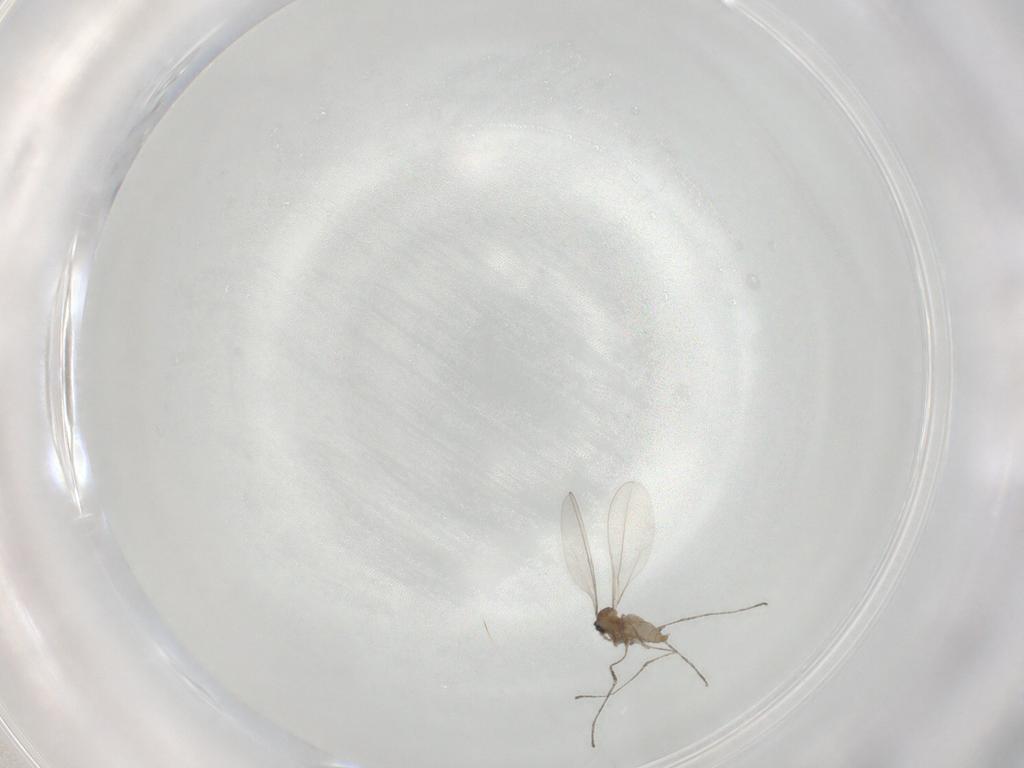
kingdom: Animalia
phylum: Arthropoda
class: Insecta
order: Diptera
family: Cecidomyiidae
